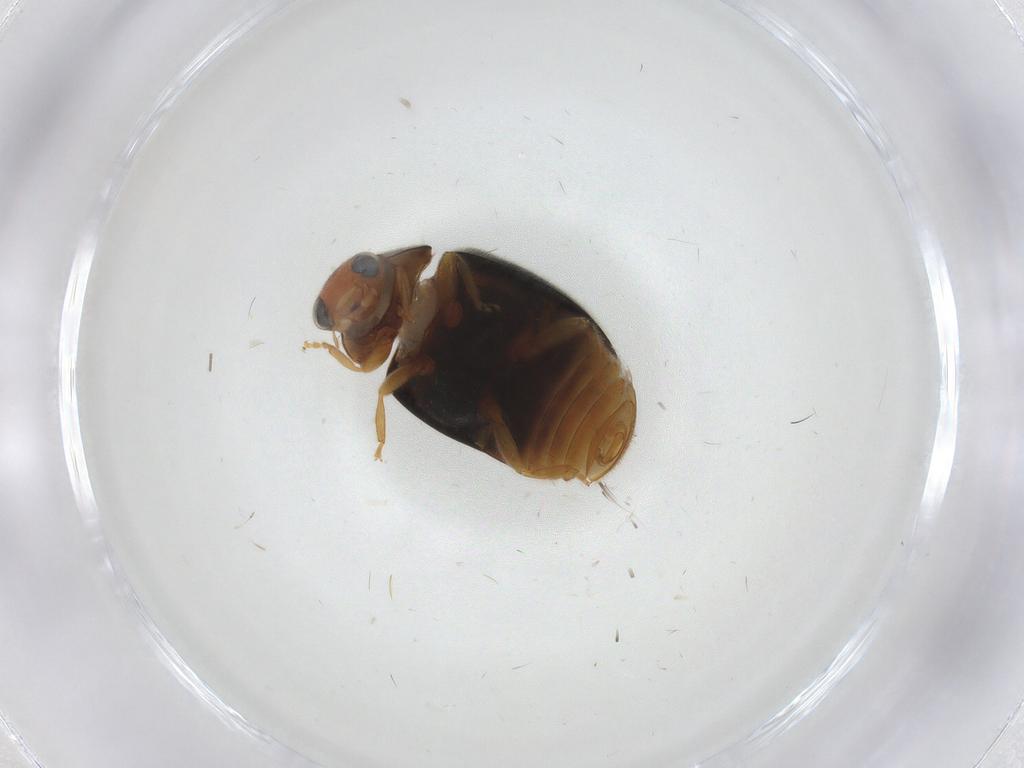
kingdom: Animalia
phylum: Arthropoda
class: Insecta
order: Coleoptera
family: Coccinellidae
